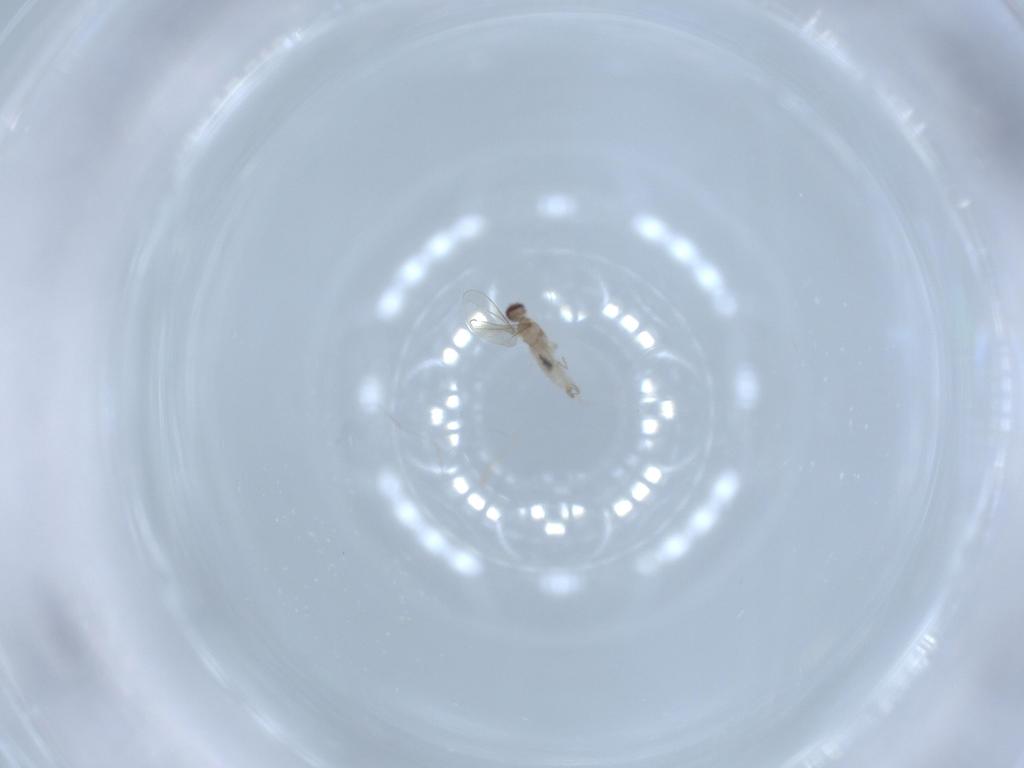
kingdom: Animalia
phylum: Arthropoda
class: Insecta
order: Diptera
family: Cecidomyiidae
